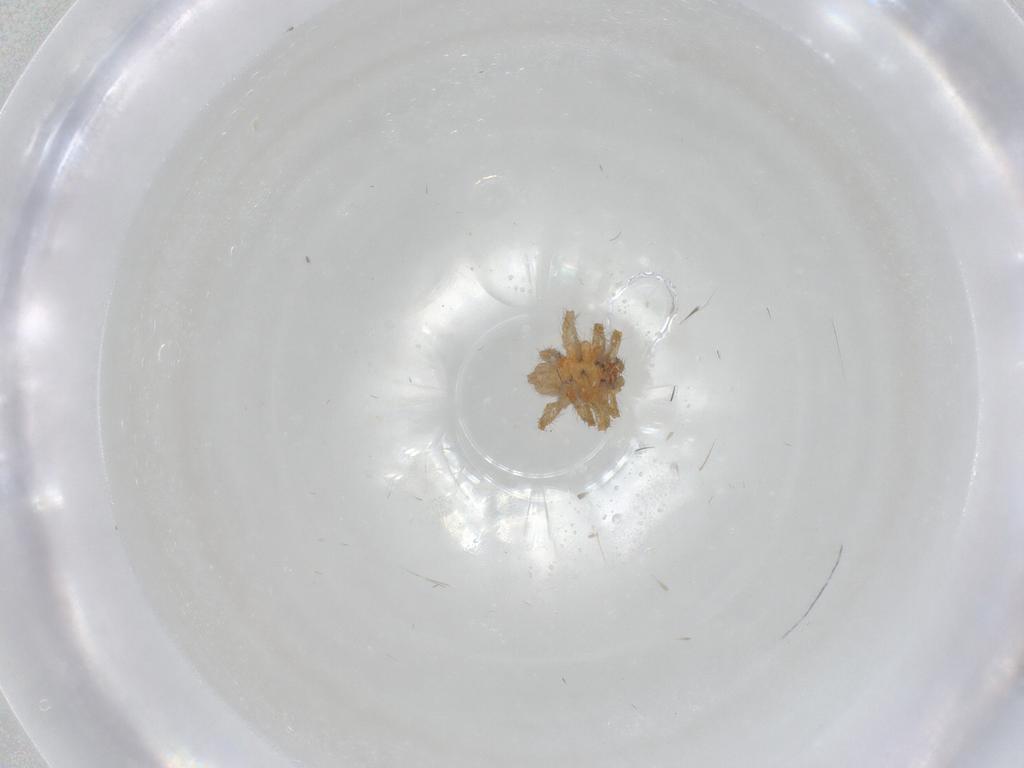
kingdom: Animalia
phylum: Arthropoda
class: Arachnida
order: Araneae
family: Linyphiidae
